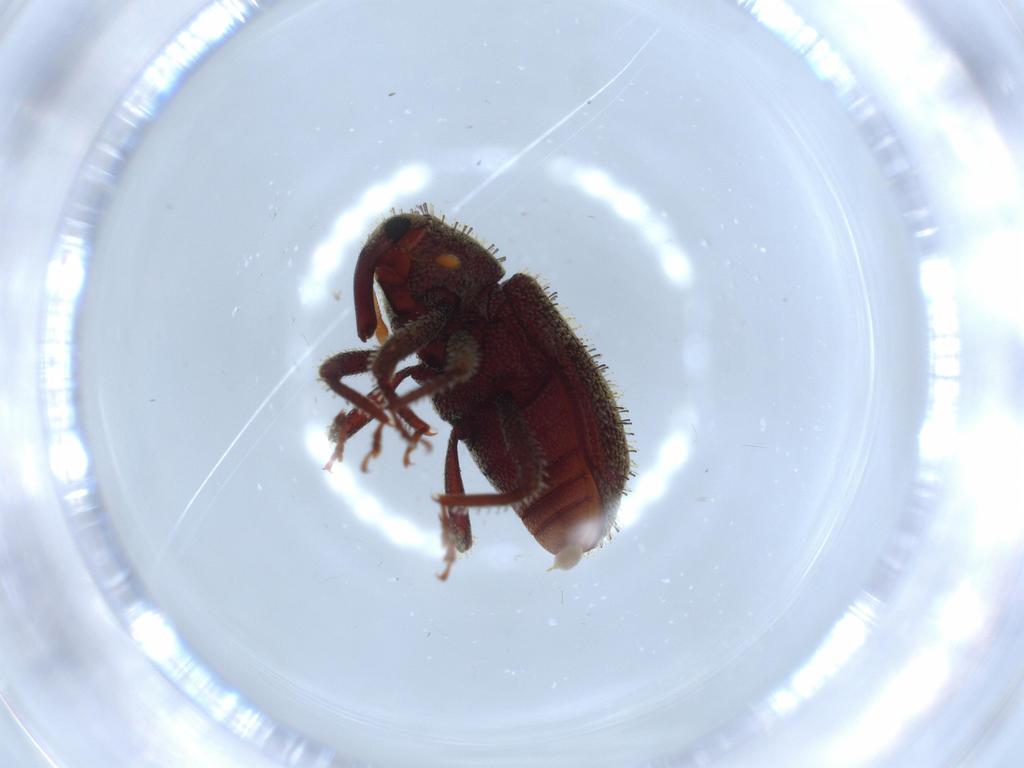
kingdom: Animalia
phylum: Arthropoda
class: Insecta
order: Coleoptera
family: Curculionidae
